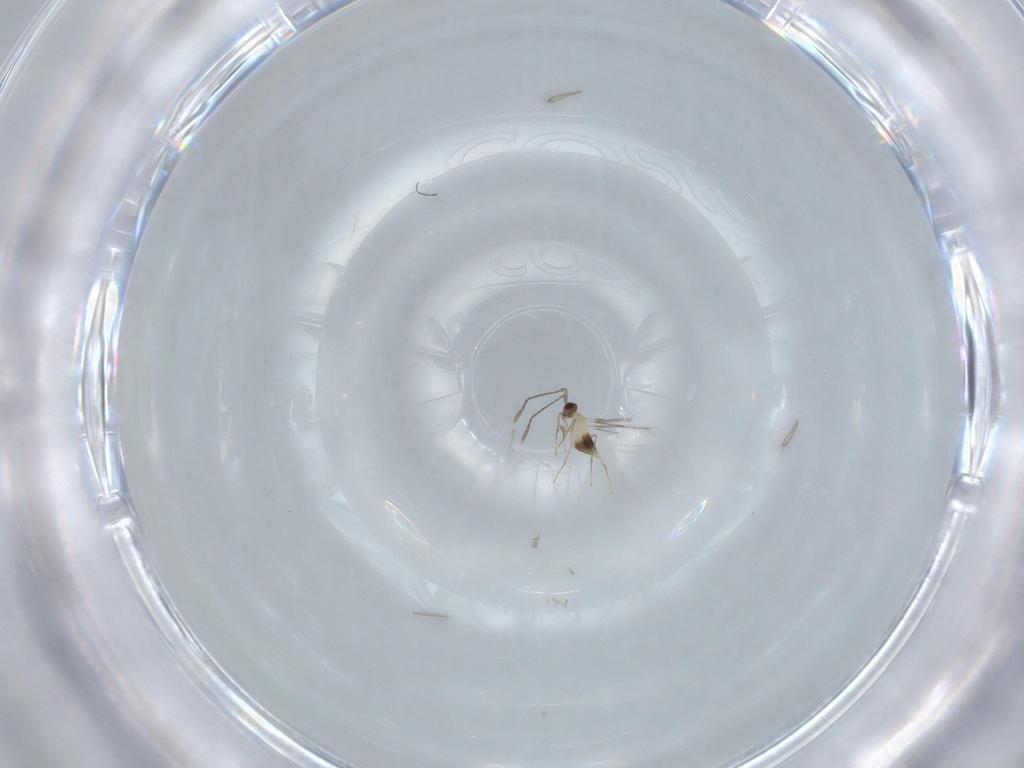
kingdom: Animalia
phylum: Arthropoda
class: Insecta
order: Hymenoptera
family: Mymaridae
